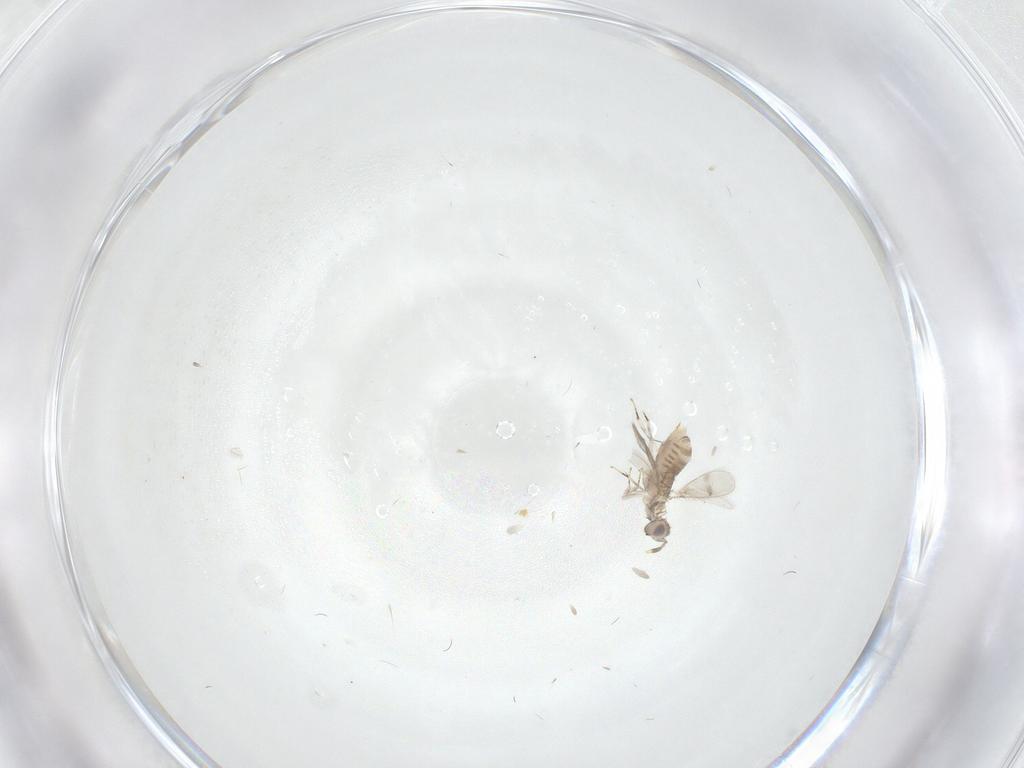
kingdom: Animalia
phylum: Arthropoda
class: Insecta
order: Hymenoptera
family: Aphelinidae
